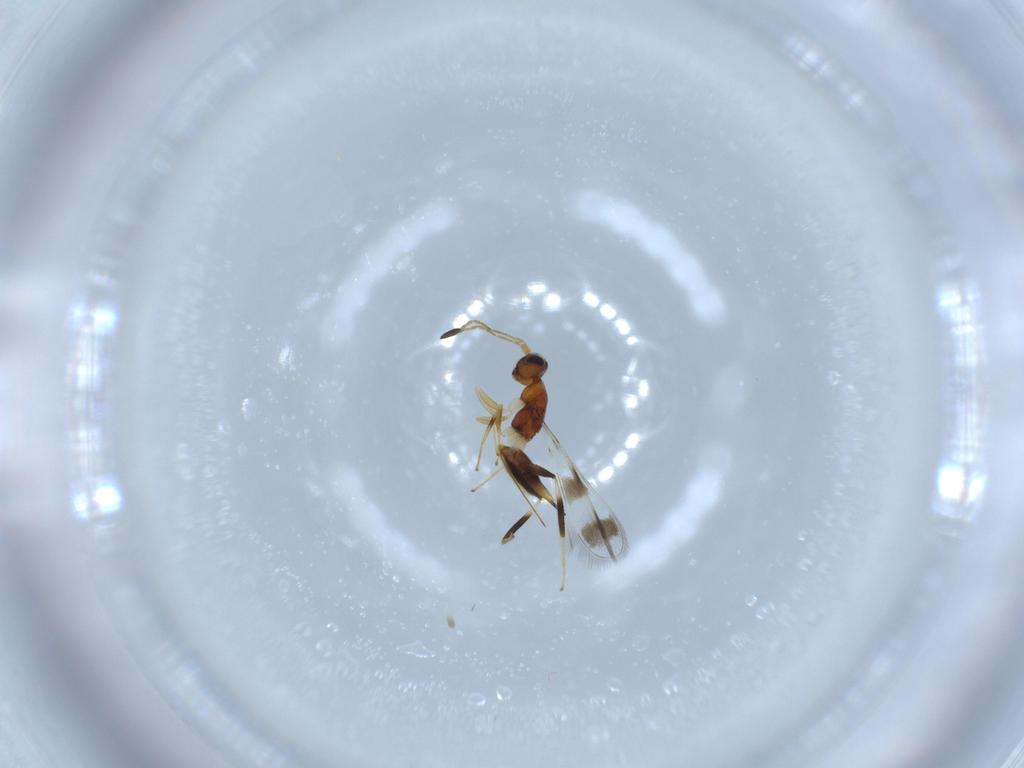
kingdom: Animalia
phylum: Arthropoda
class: Insecta
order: Hymenoptera
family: Mymaridae
